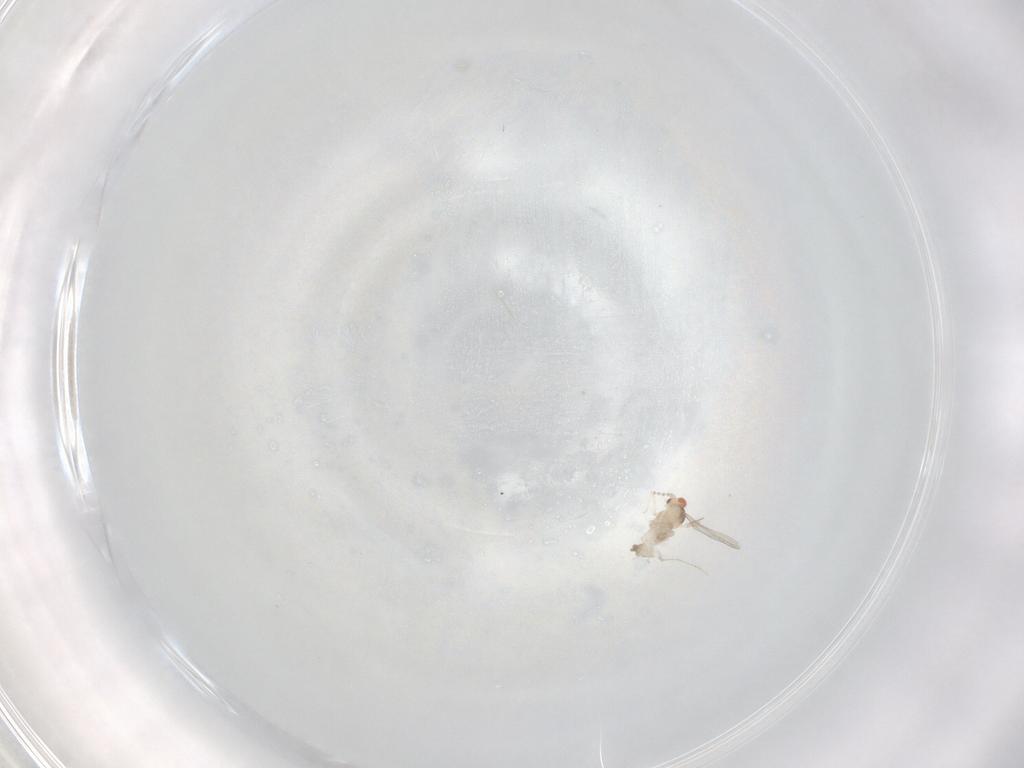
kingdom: Animalia
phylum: Arthropoda
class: Insecta
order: Diptera
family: Cecidomyiidae
